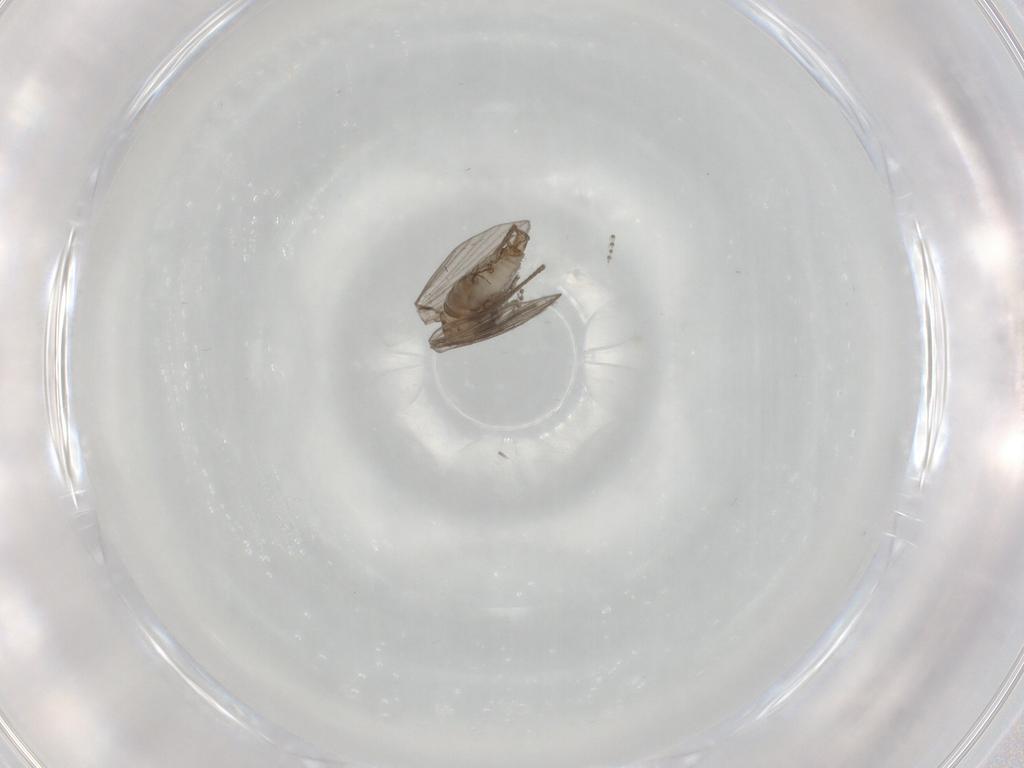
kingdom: Animalia
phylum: Arthropoda
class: Insecta
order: Diptera
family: Psychodidae
